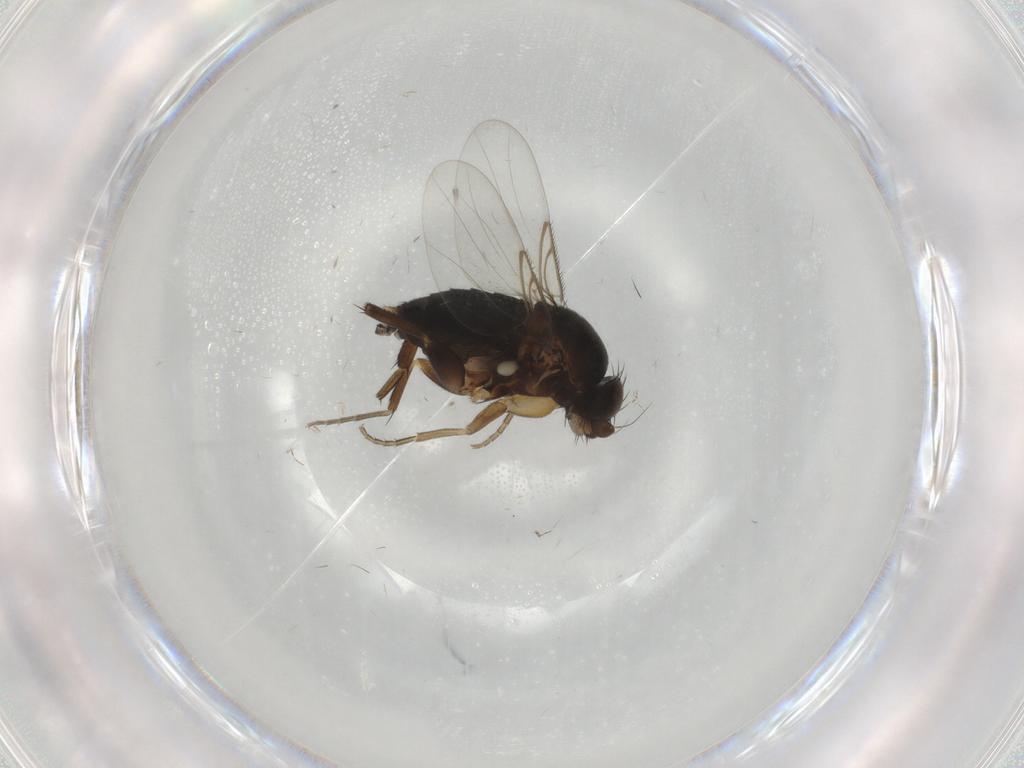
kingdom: Animalia
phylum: Arthropoda
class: Insecta
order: Diptera
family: Phoridae
